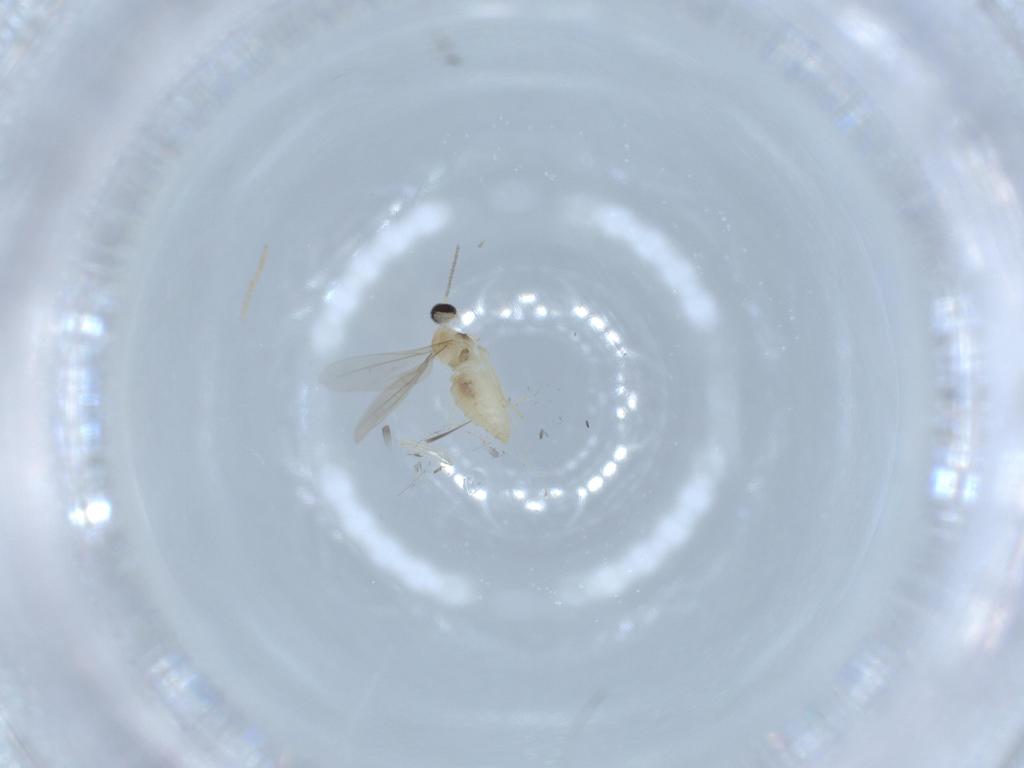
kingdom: Animalia
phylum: Arthropoda
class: Insecta
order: Diptera
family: Cecidomyiidae
